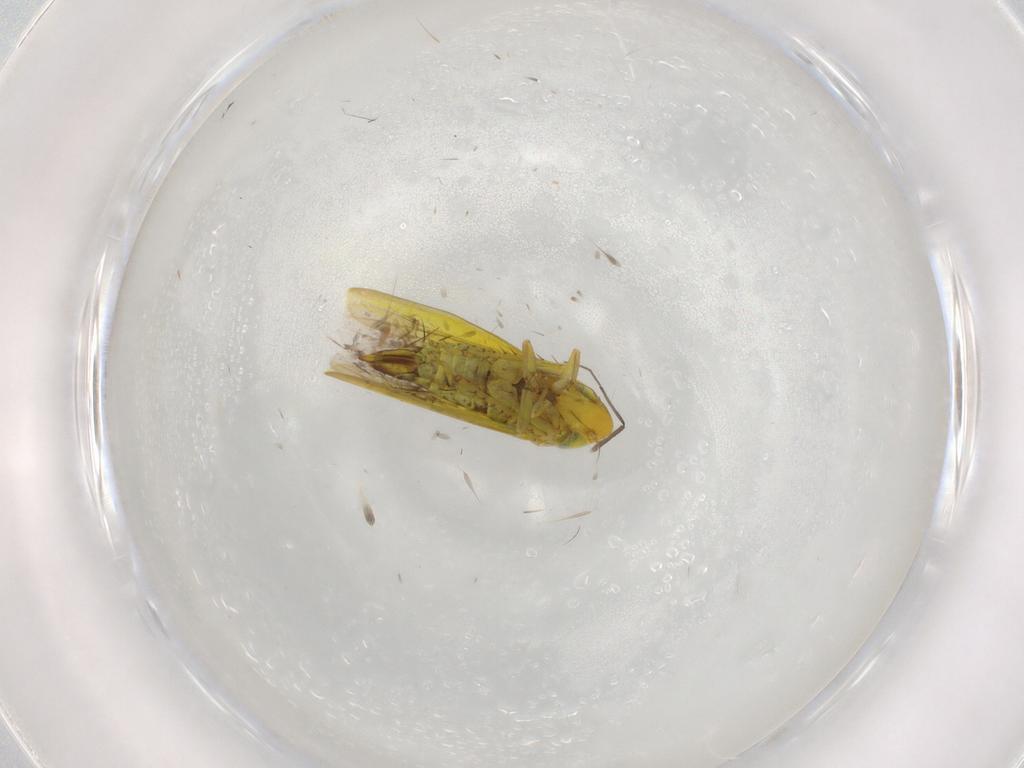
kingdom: Animalia
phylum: Arthropoda
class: Insecta
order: Hemiptera
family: Cicadellidae
